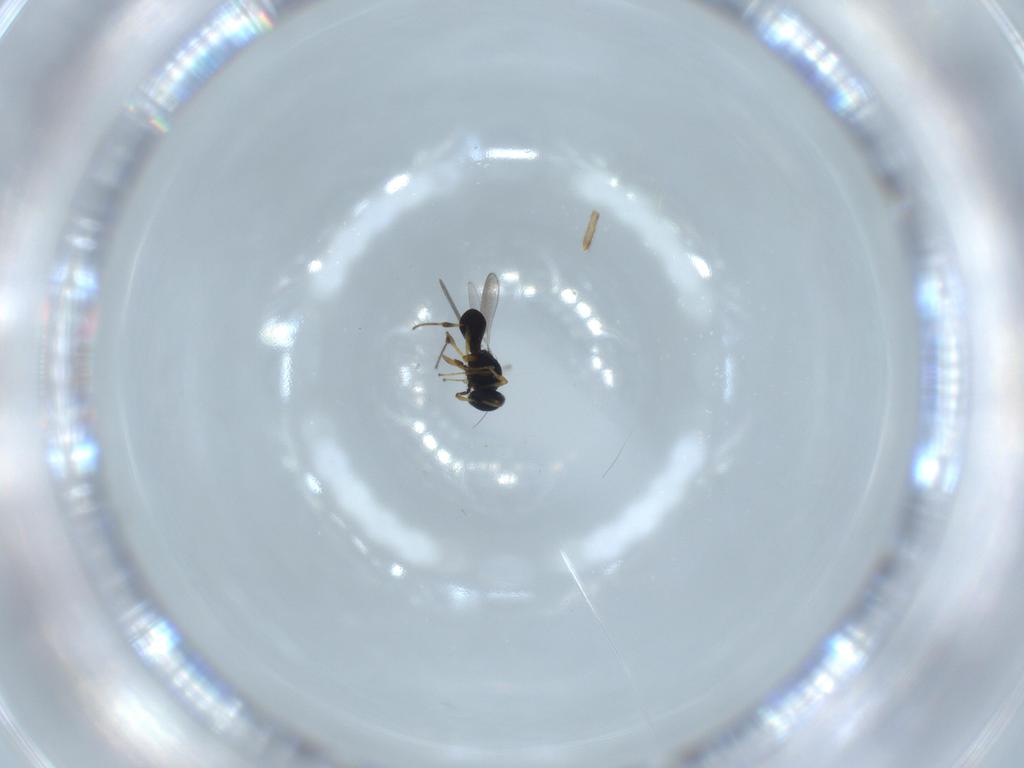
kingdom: Animalia
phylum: Arthropoda
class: Insecta
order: Hymenoptera
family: Platygastridae
